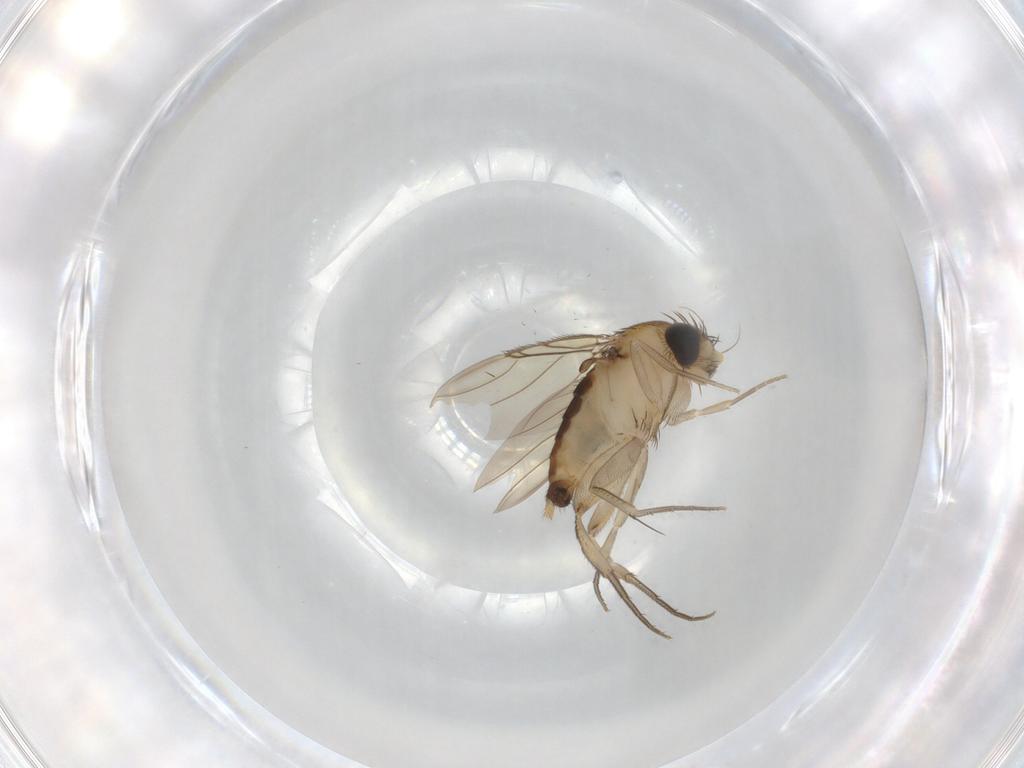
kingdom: Animalia
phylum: Arthropoda
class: Insecta
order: Diptera
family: Phoridae
